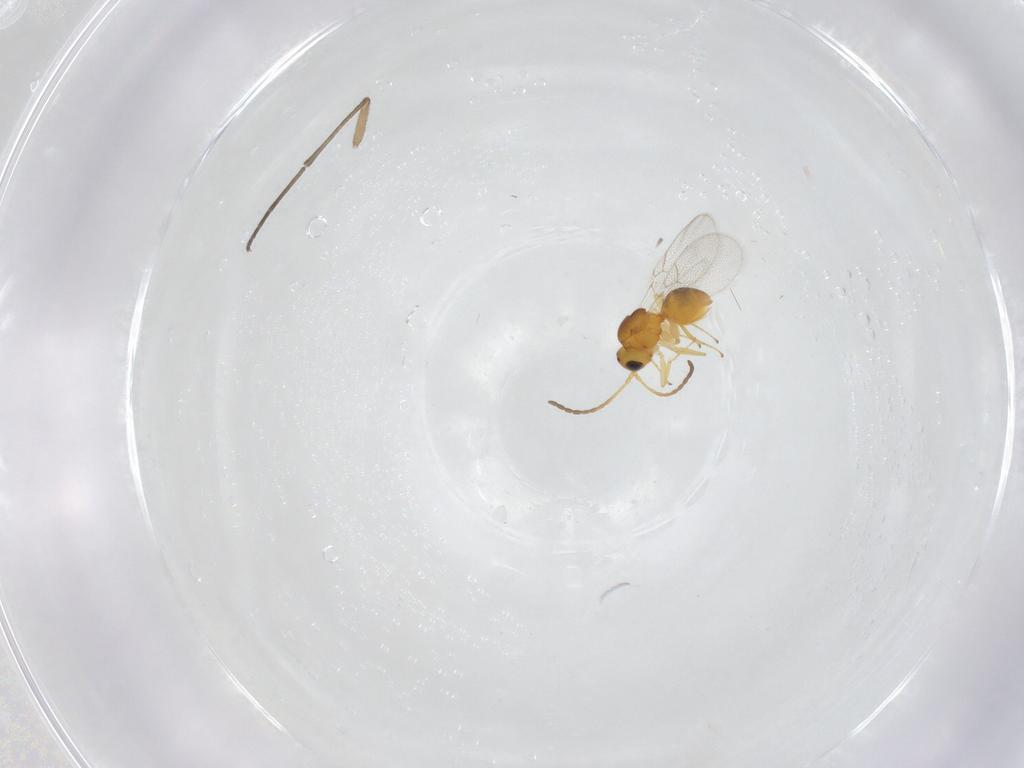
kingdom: Animalia
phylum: Arthropoda
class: Insecta
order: Hymenoptera
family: Figitidae
